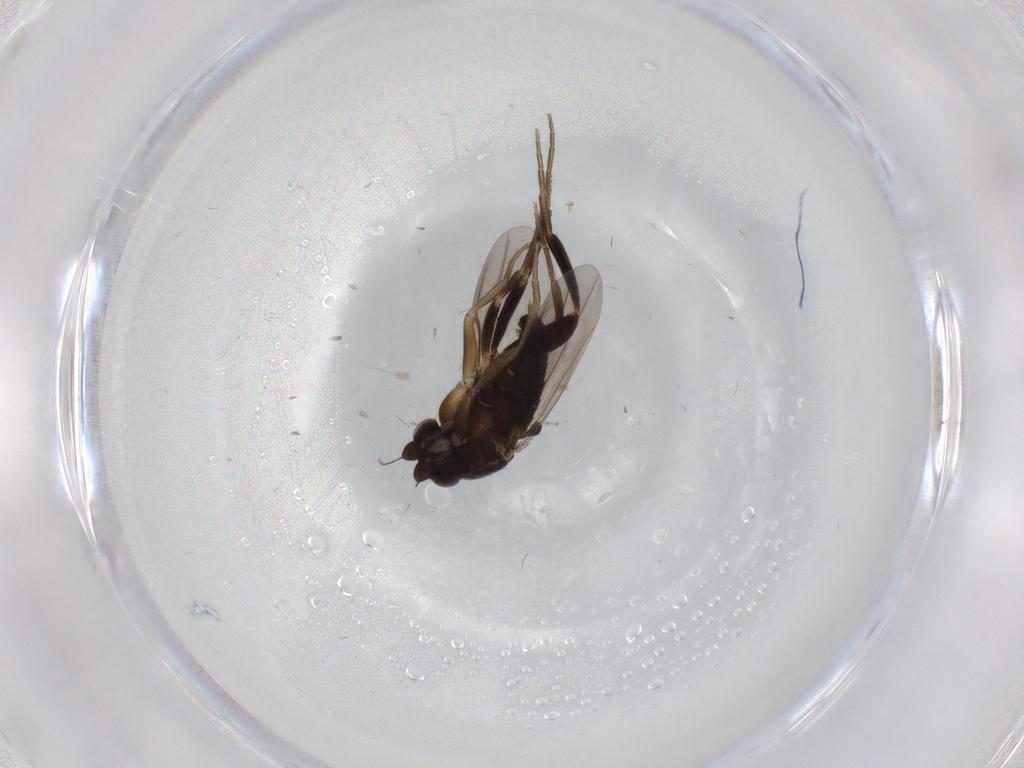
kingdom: Animalia
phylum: Arthropoda
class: Insecta
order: Diptera
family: Phoridae
